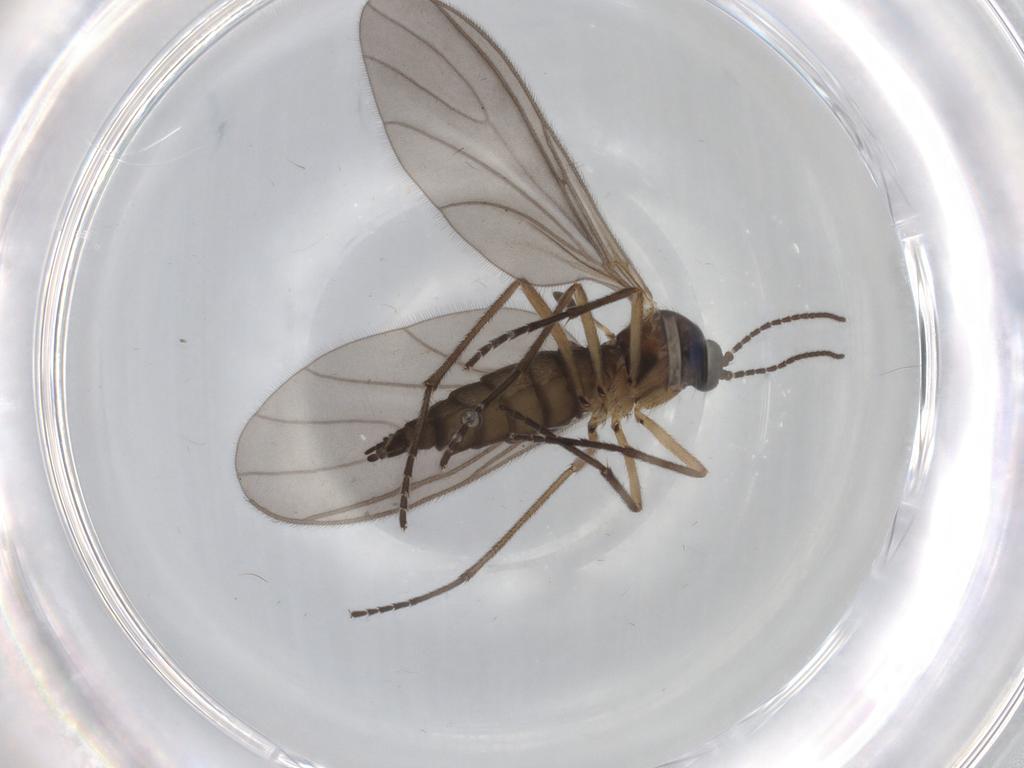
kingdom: Animalia
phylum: Arthropoda
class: Insecta
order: Diptera
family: Sciaridae
